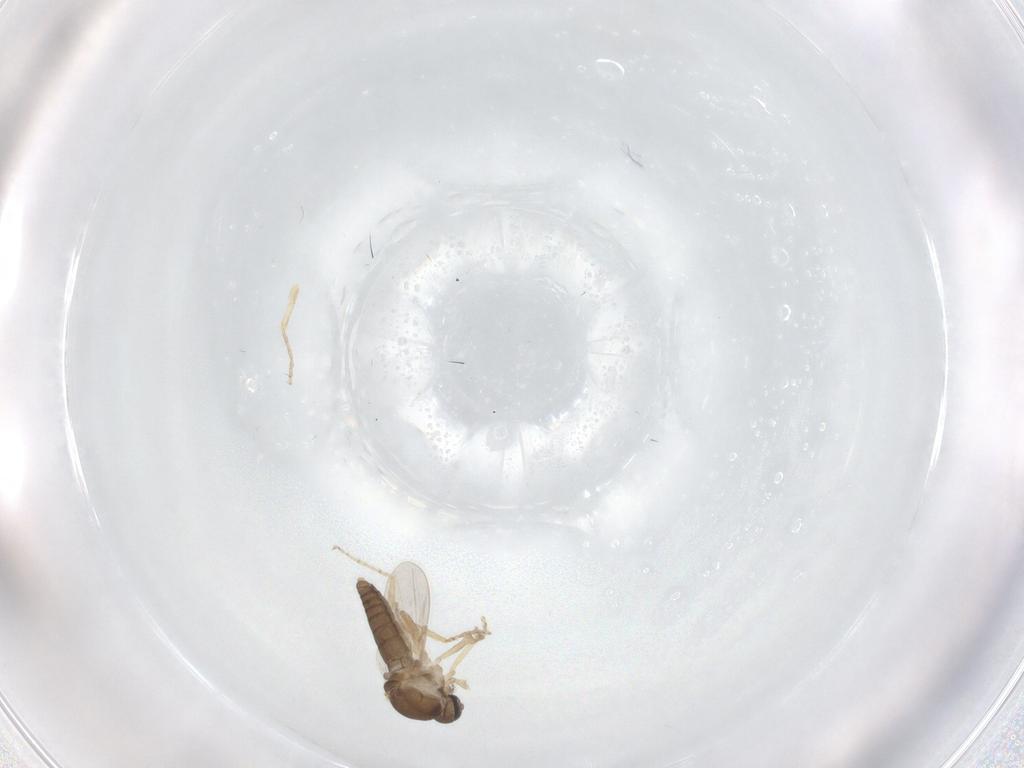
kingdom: Animalia
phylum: Arthropoda
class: Insecta
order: Diptera
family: Ceratopogonidae
